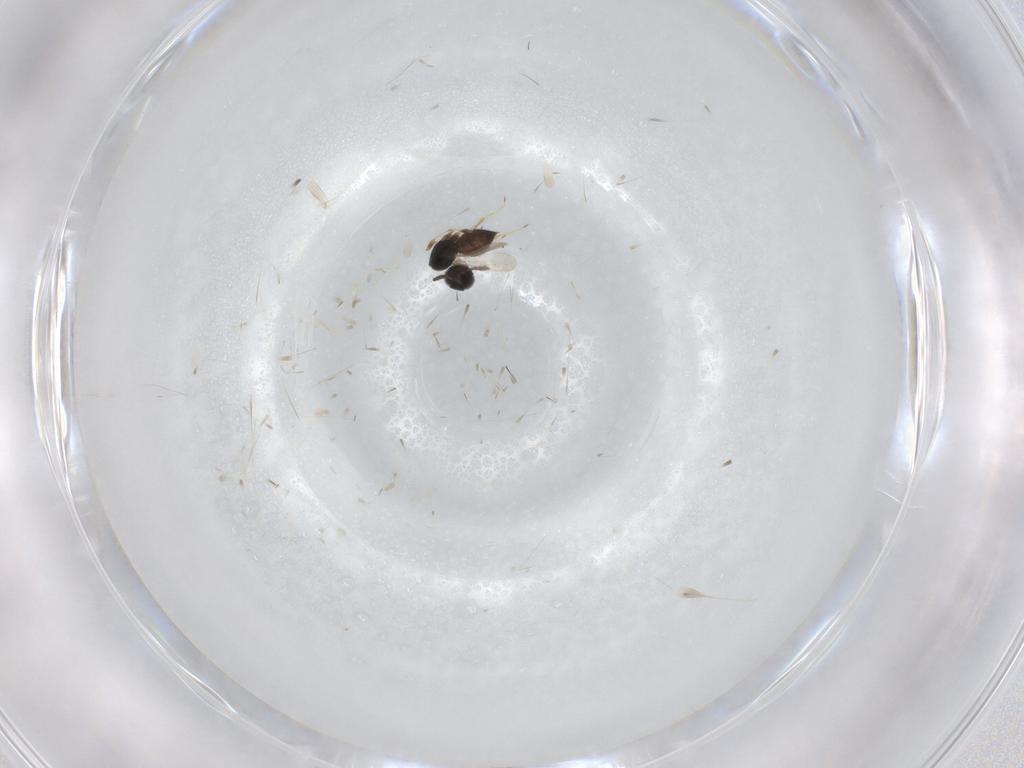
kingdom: Animalia
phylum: Arthropoda
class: Insecta
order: Hymenoptera
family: Scelionidae
